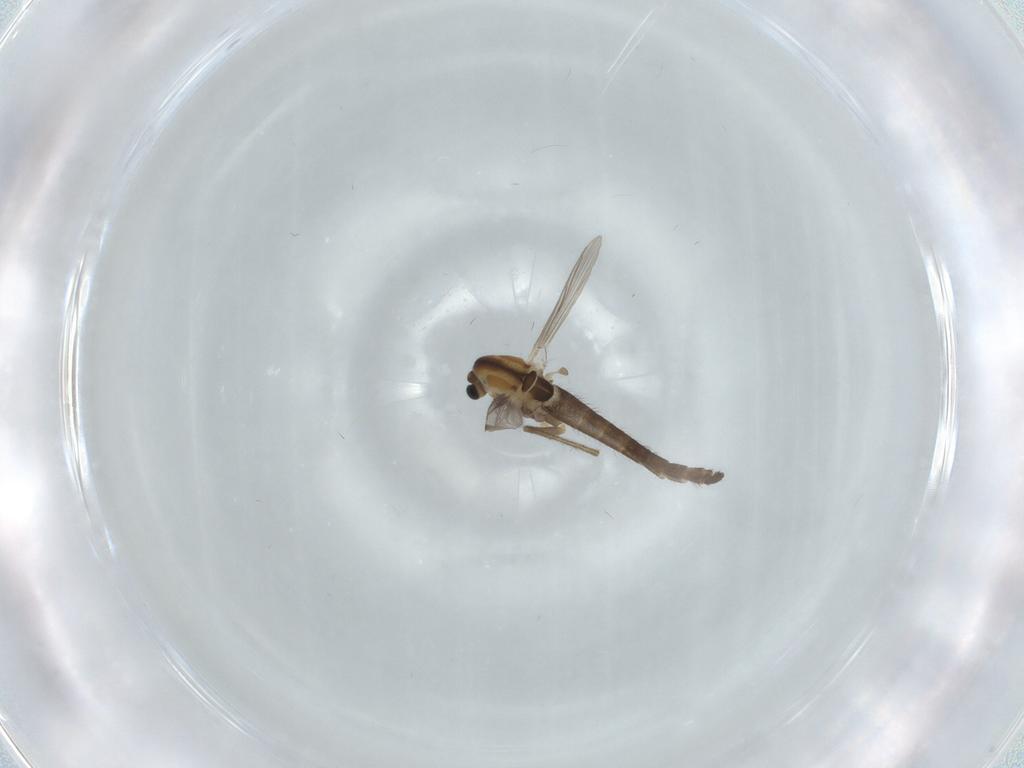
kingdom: Animalia
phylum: Arthropoda
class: Insecta
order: Diptera
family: Chironomidae
